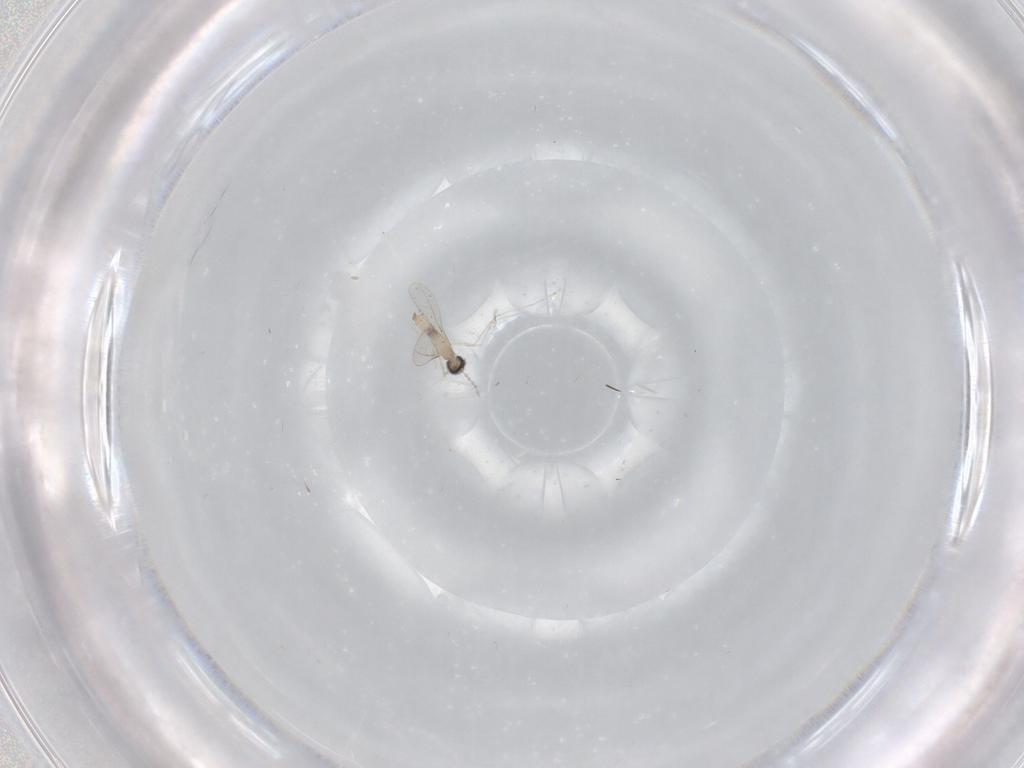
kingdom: Animalia
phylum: Arthropoda
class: Insecta
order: Diptera
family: Cecidomyiidae
